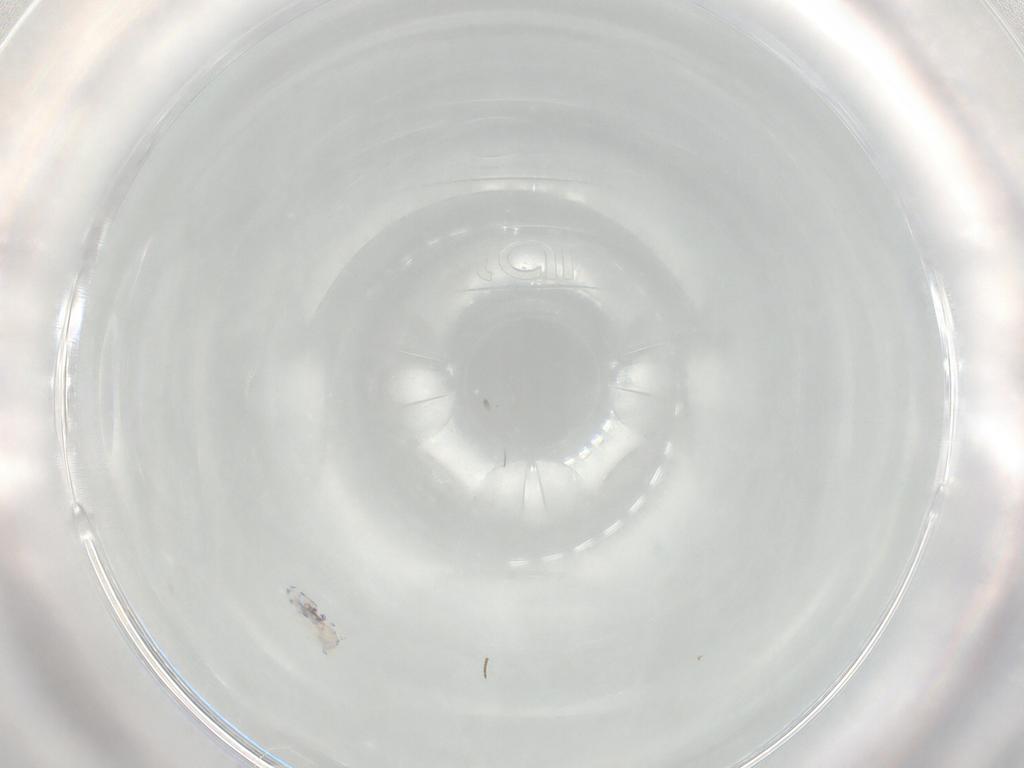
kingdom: Animalia
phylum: Arthropoda
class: Collembola
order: Entomobryomorpha
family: Entomobryidae
